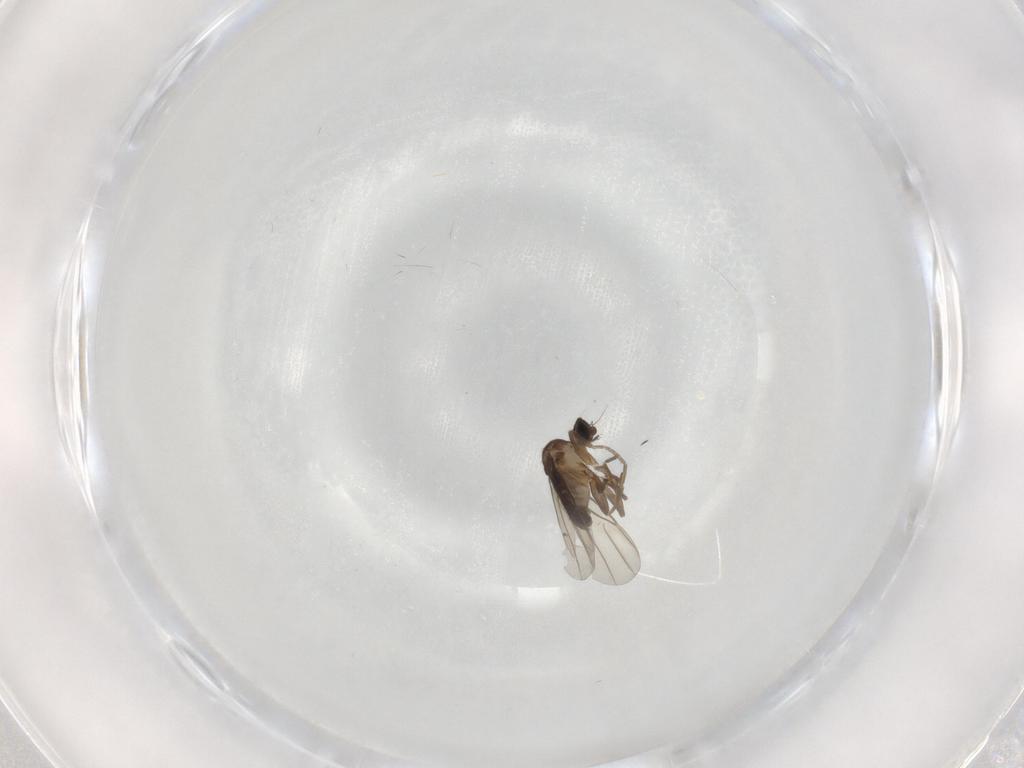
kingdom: Animalia
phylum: Arthropoda
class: Insecta
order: Diptera
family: Phoridae
